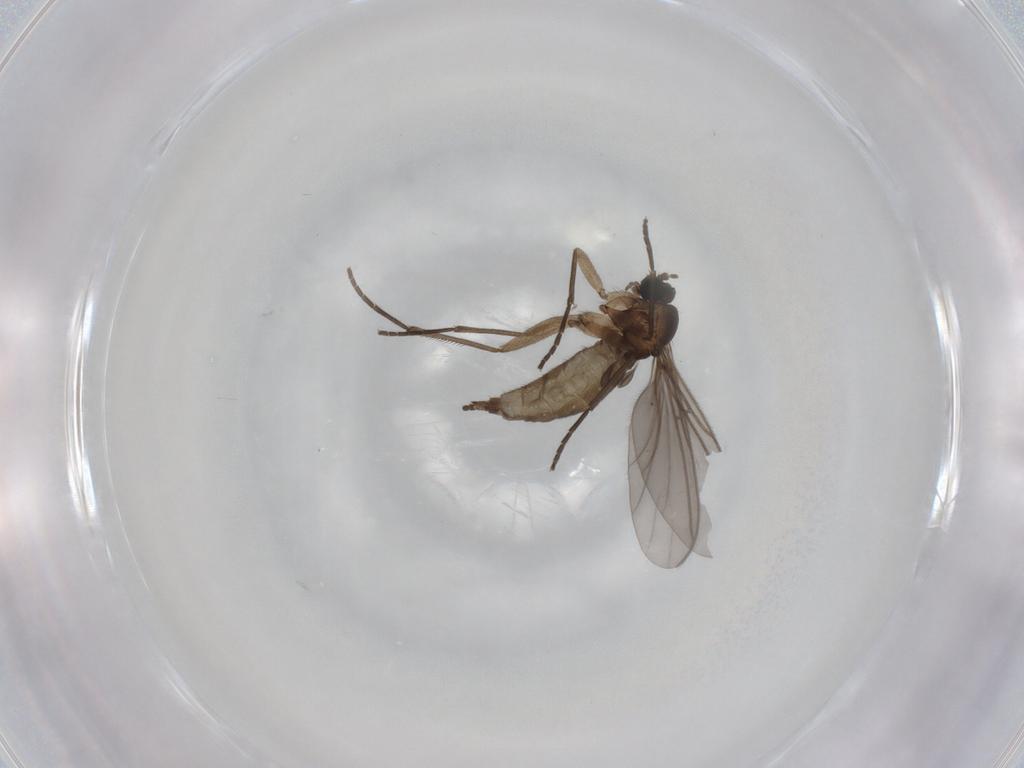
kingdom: Animalia
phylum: Arthropoda
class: Insecta
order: Diptera
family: Sciaridae
